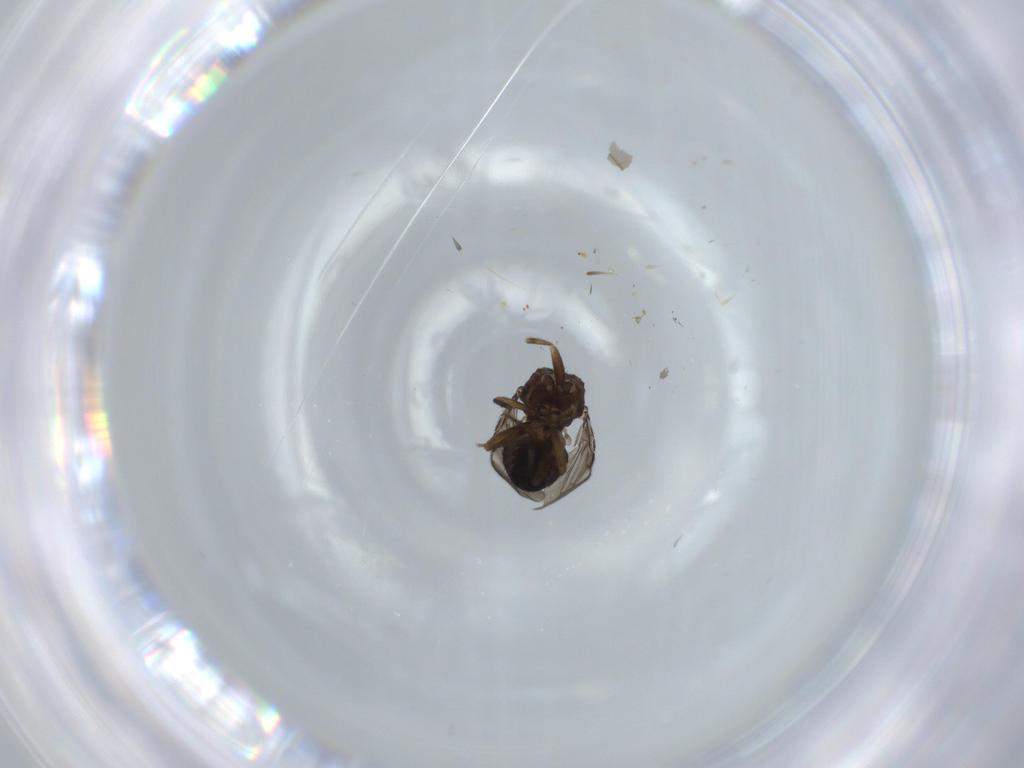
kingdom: Animalia
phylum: Arthropoda
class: Insecta
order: Diptera
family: Sphaeroceridae
